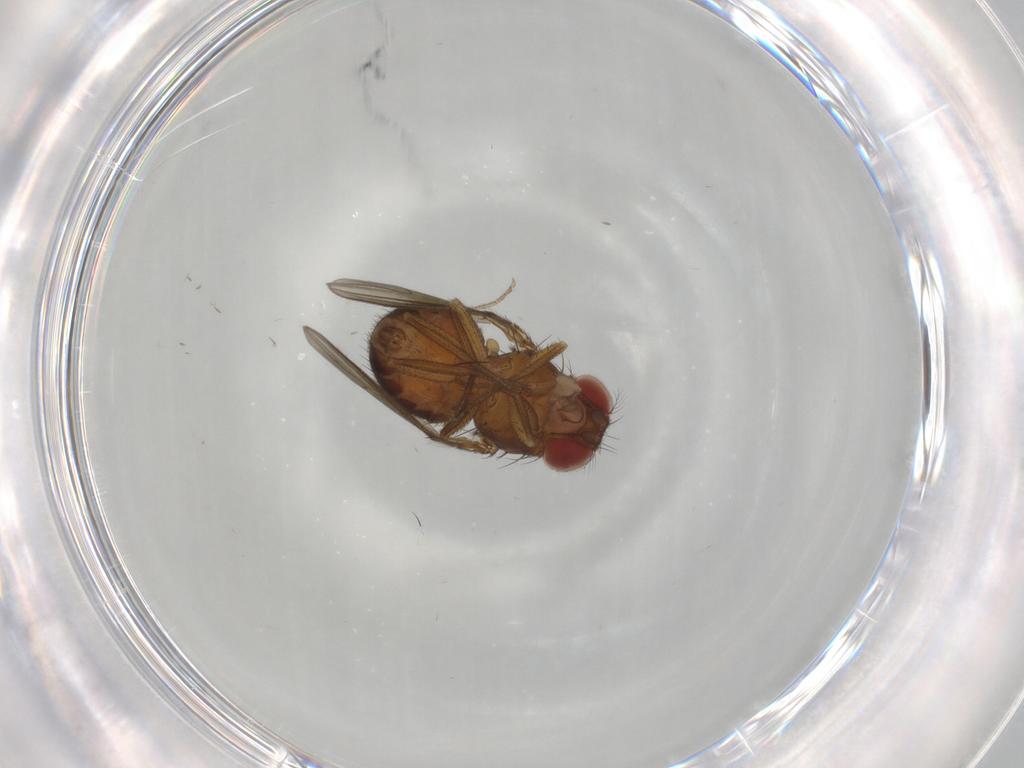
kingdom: Animalia
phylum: Arthropoda
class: Insecta
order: Diptera
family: Drosophilidae
